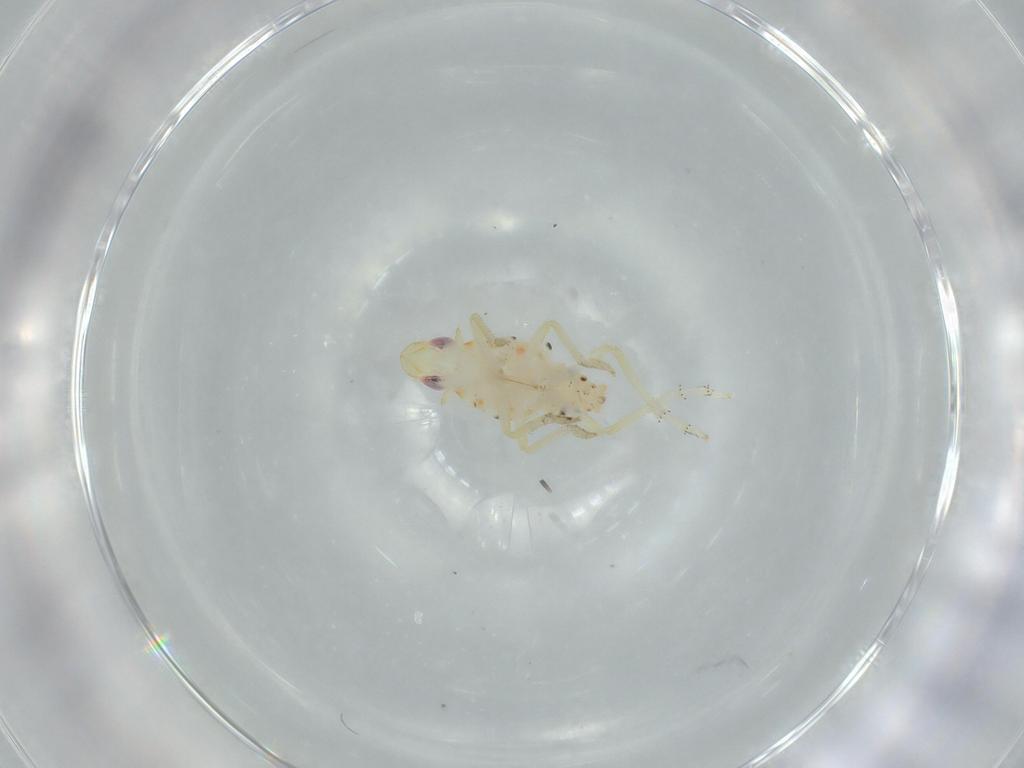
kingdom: Animalia
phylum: Arthropoda
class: Insecta
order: Hemiptera
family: Tropiduchidae
